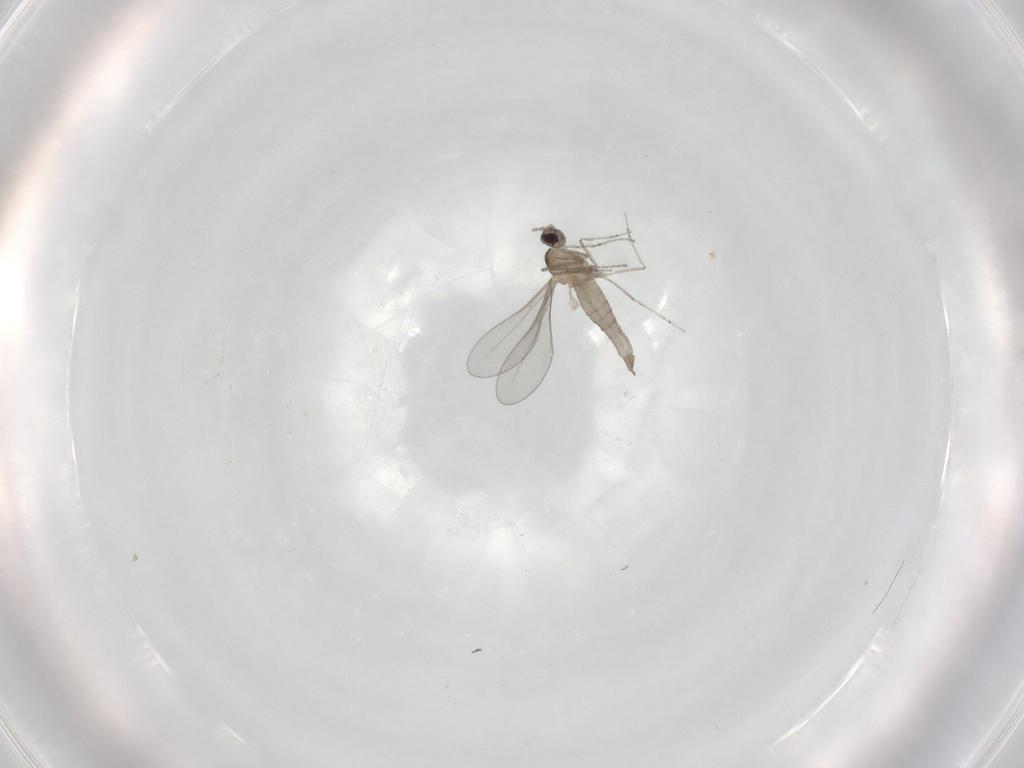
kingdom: Animalia
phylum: Arthropoda
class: Insecta
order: Diptera
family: Cecidomyiidae
